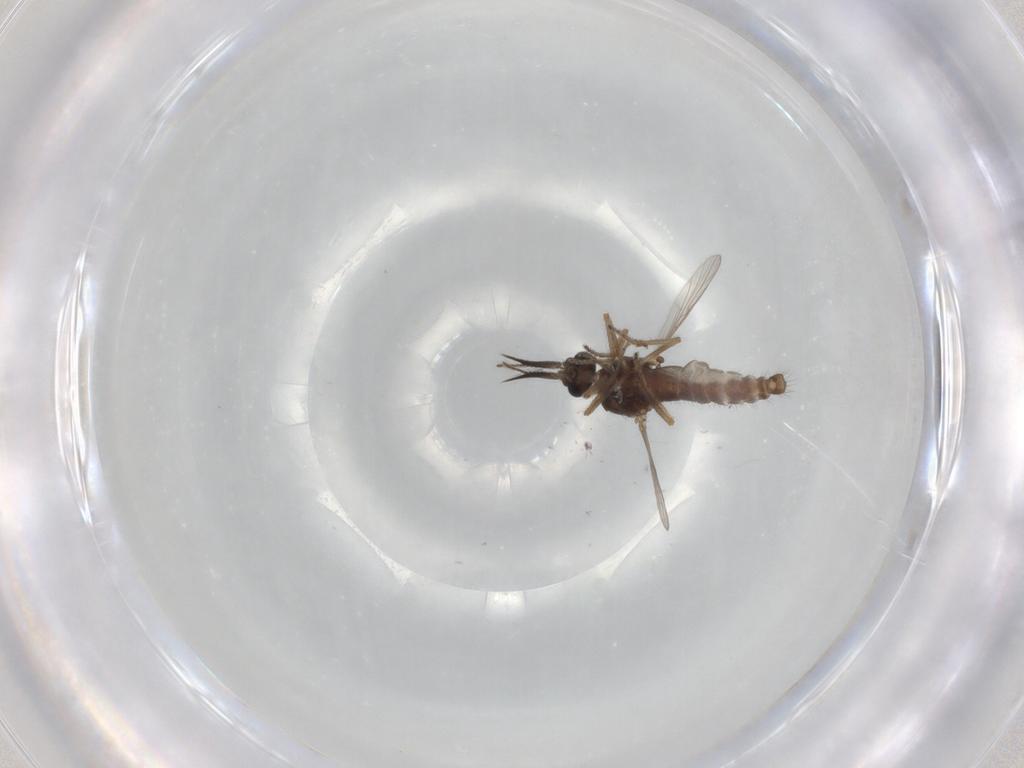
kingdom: Animalia
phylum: Arthropoda
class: Insecta
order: Diptera
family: Ceratopogonidae
